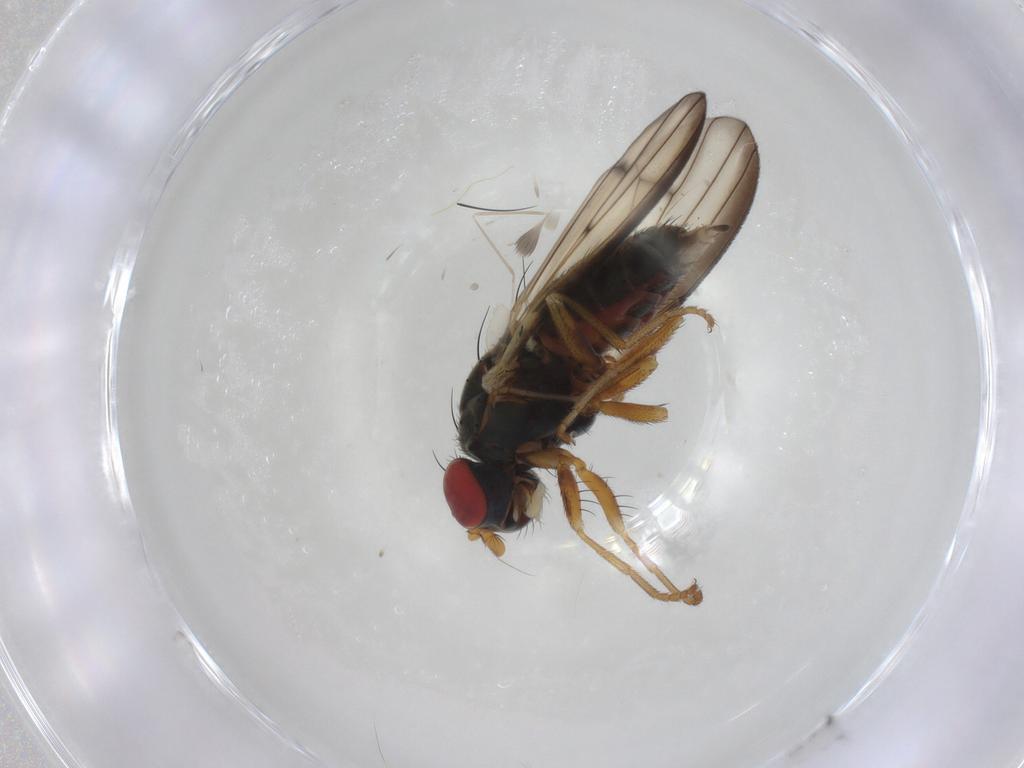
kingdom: Animalia
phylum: Arthropoda
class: Insecta
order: Diptera
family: Chamaemyiidae
